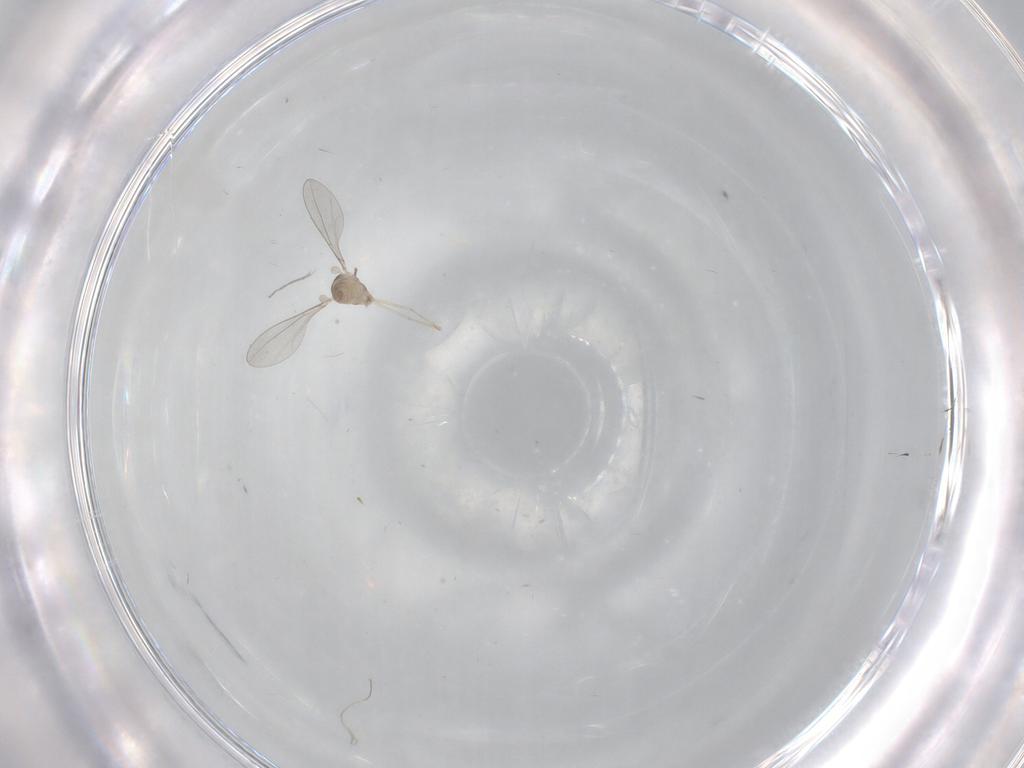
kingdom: Animalia
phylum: Arthropoda
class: Insecta
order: Diptera
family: Cecidomyiidae
